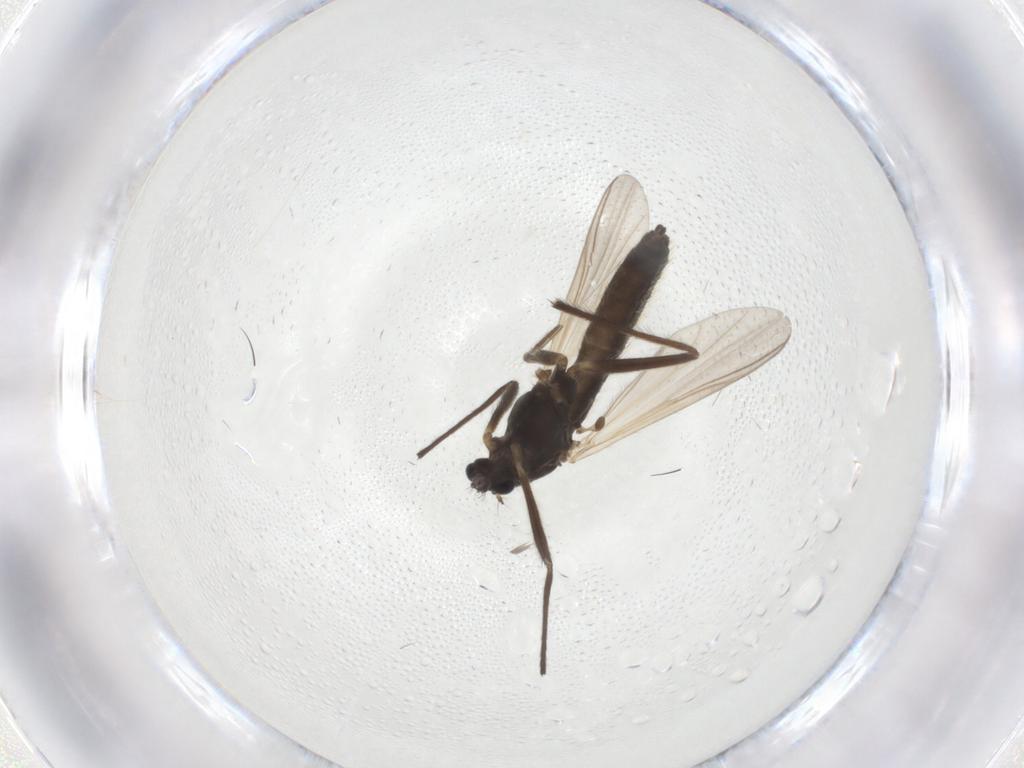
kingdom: Animalia
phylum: Arthropoda
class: Insecta
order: Diptera
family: Chironomidae
